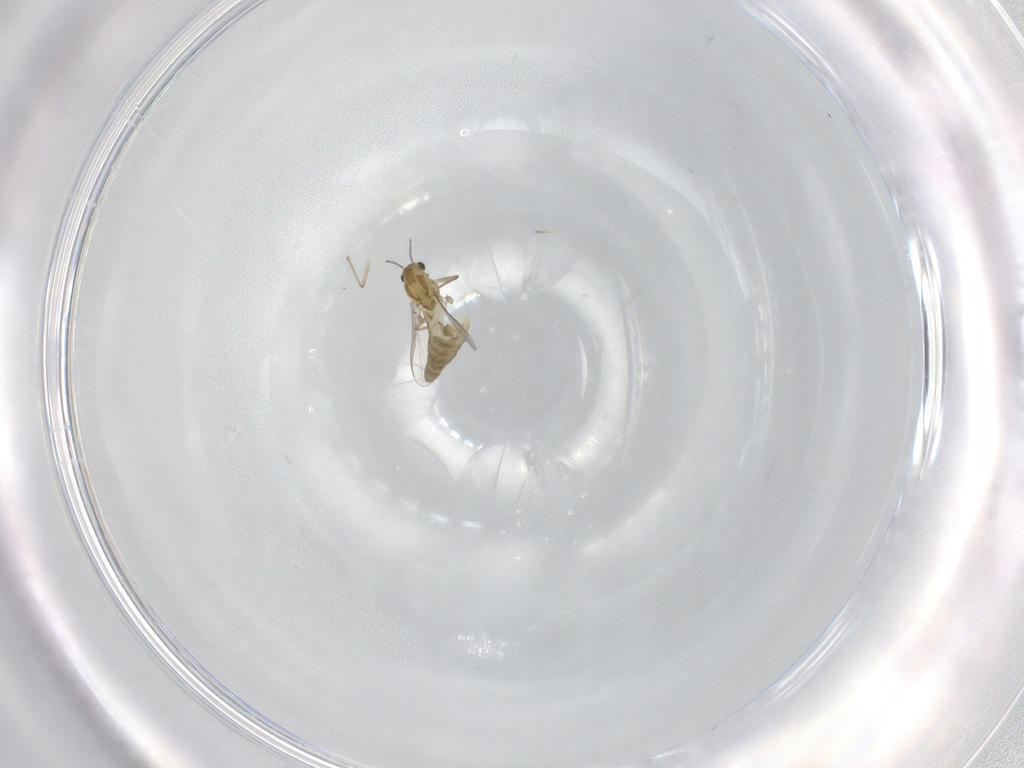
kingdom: Animalia
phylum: Arthropoda
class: Insecta
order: Diptera
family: Chironomidae
